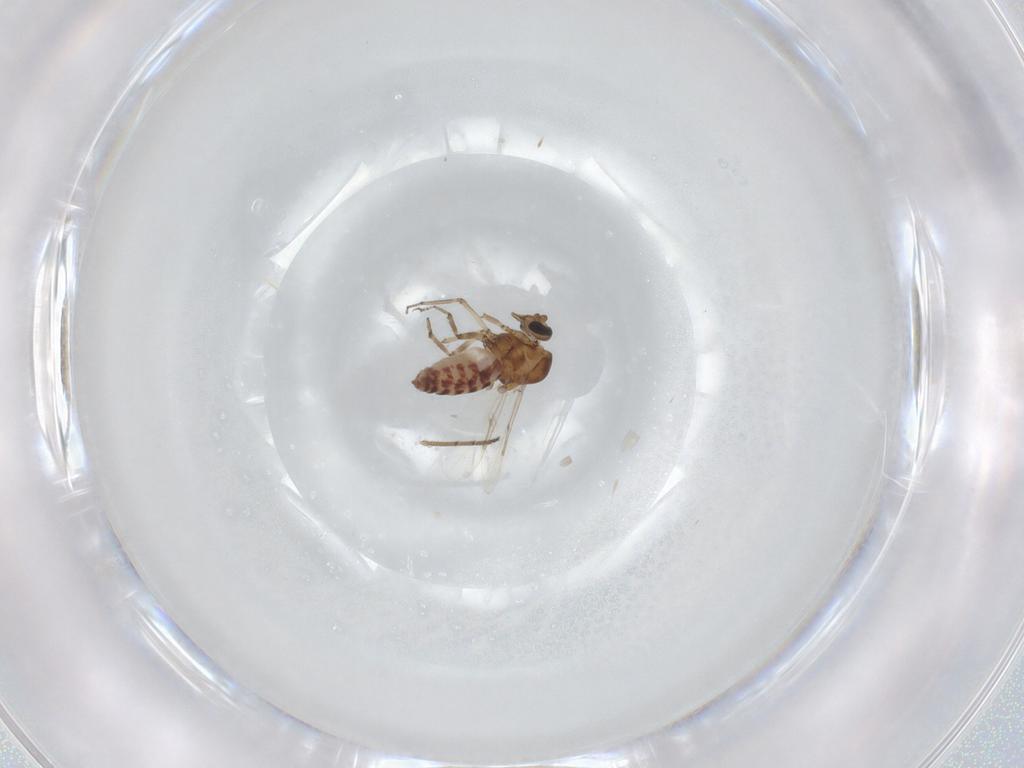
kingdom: Animalia
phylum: Arthropoda
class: Insecta
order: Diptera
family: Ceratopogonidae
